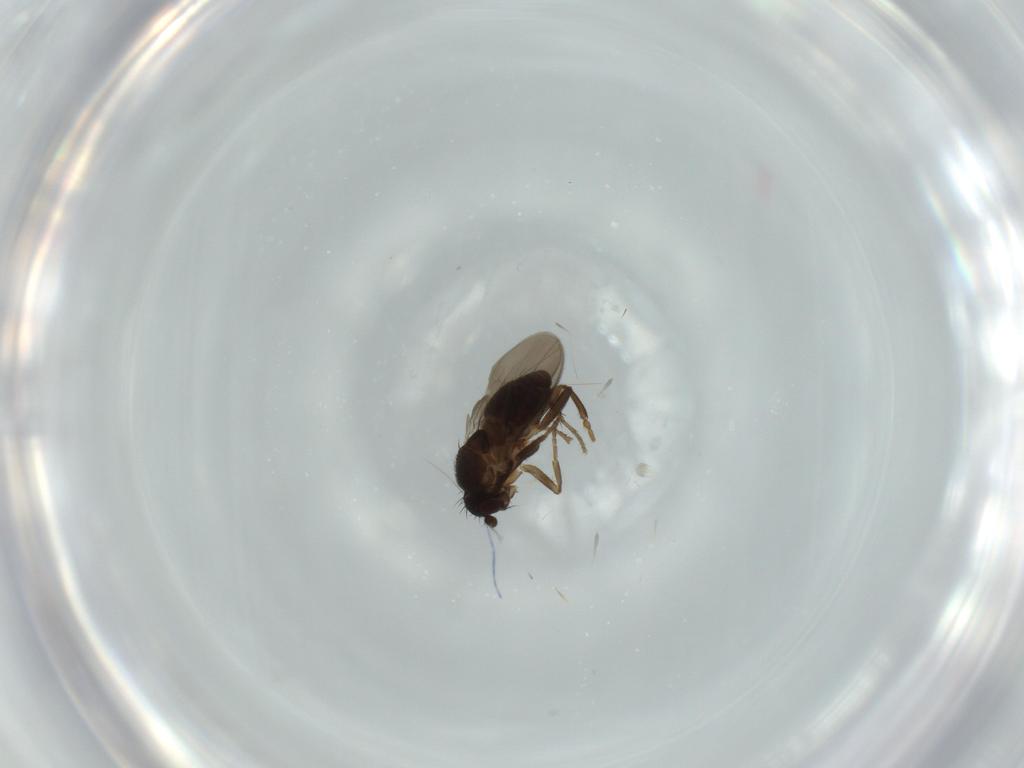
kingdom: Animalia
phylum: Arthropoda
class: Insecta
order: Diptera
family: Sphaeroceridae
